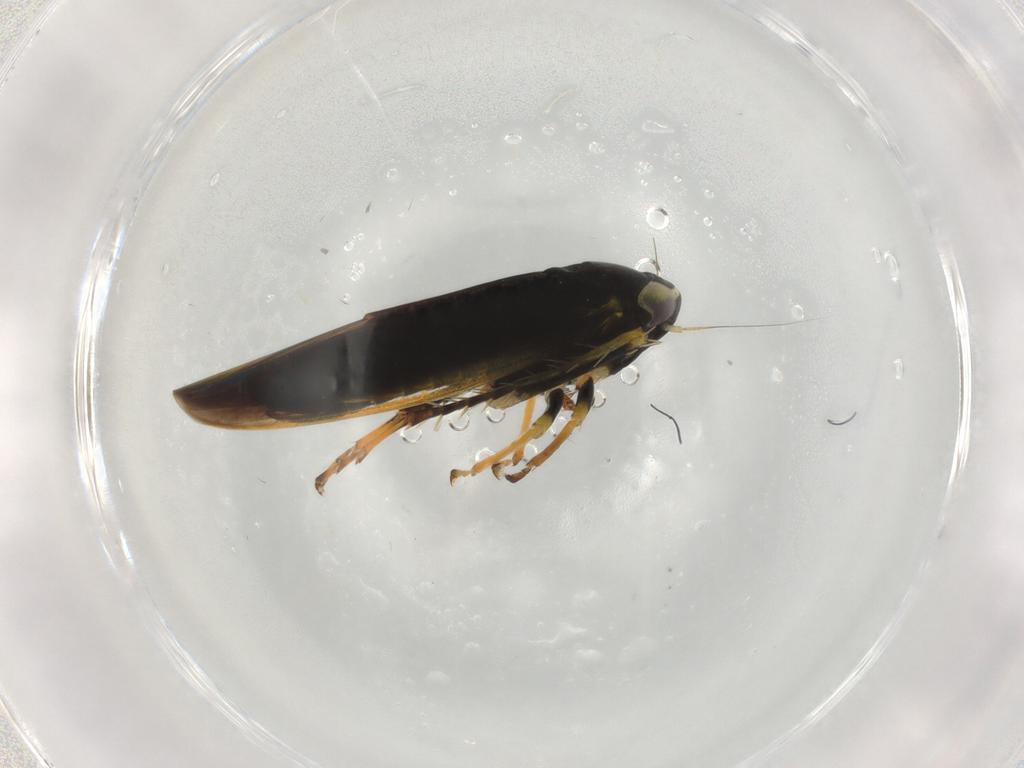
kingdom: Animalia
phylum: Arthropoda
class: Insecta
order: Hemiptera
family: Cicadellidae
